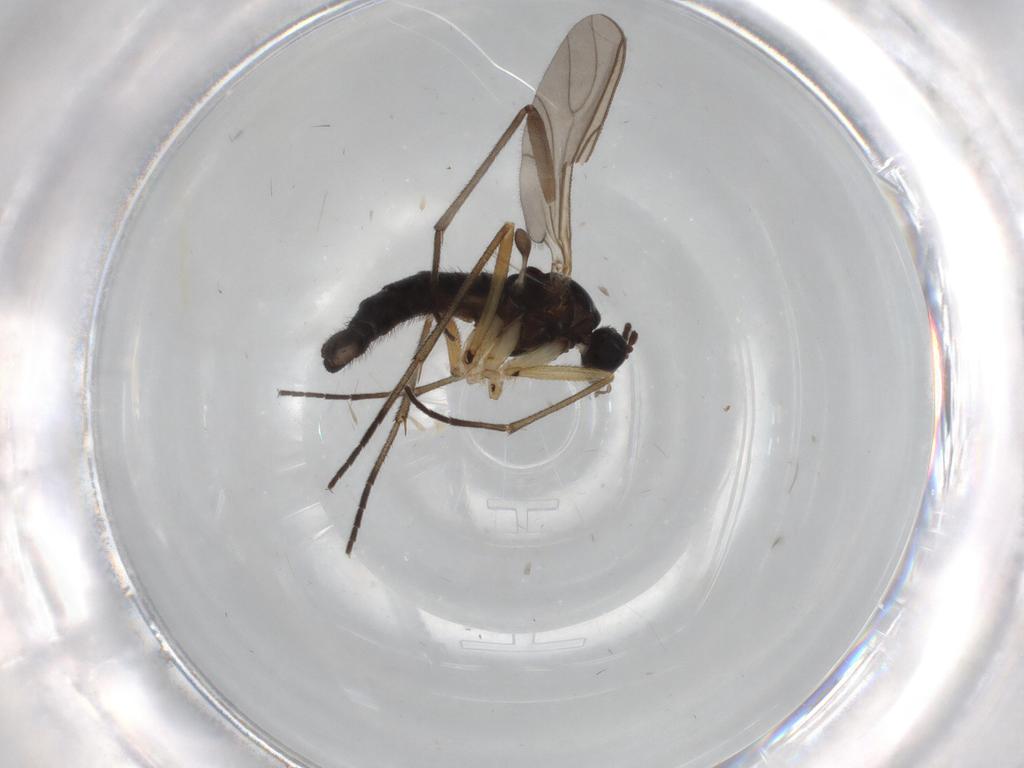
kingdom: Animalia
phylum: Arthropoda
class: Insecta
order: Diptera
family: Sciaridae
